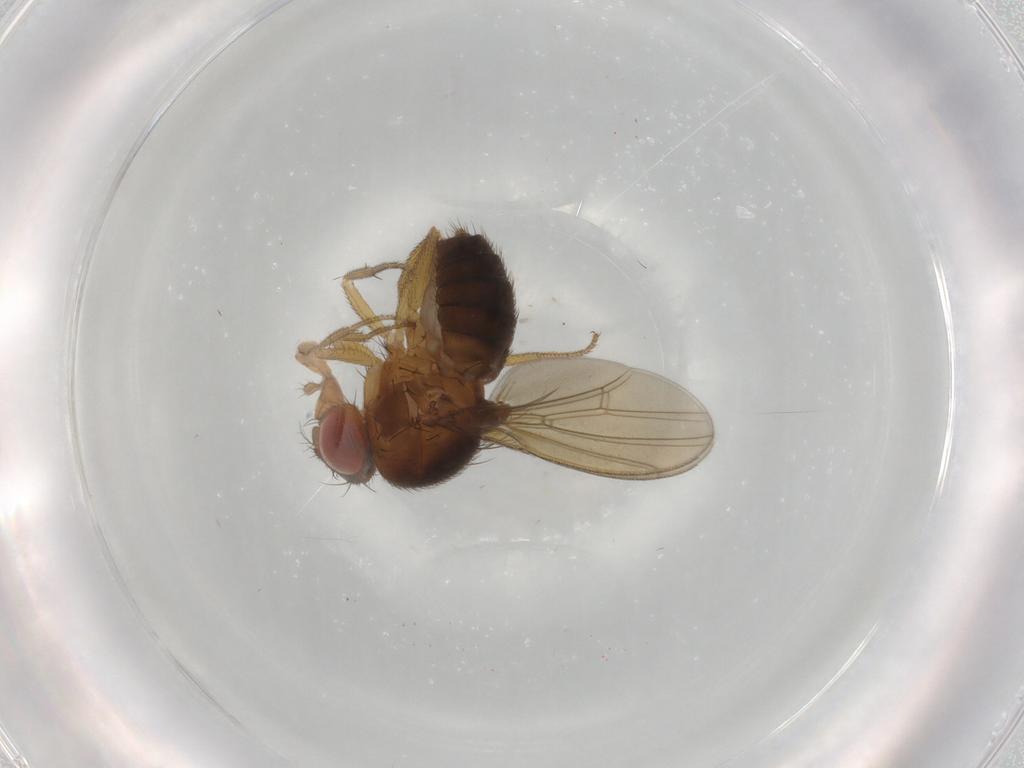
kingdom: Animalia
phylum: Arthropoda
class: Insecta
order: Diptera
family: Drosophilidae
